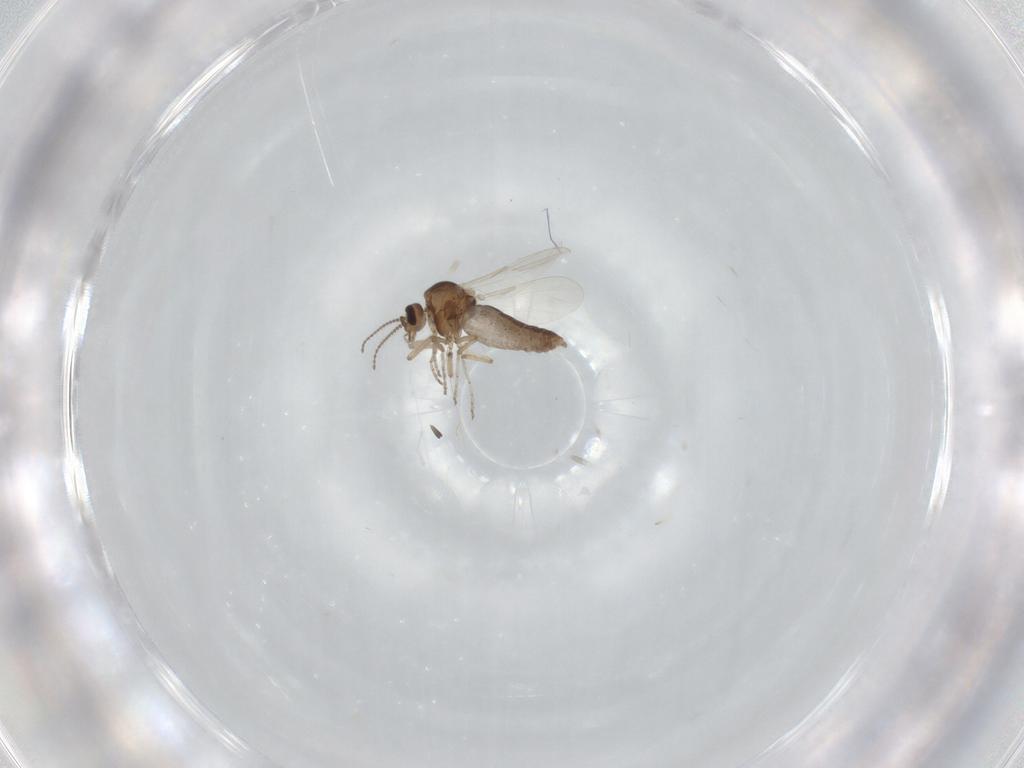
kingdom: Animalia
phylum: Arthropoda
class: Insecta
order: Diptera
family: Ceratopogonidae
